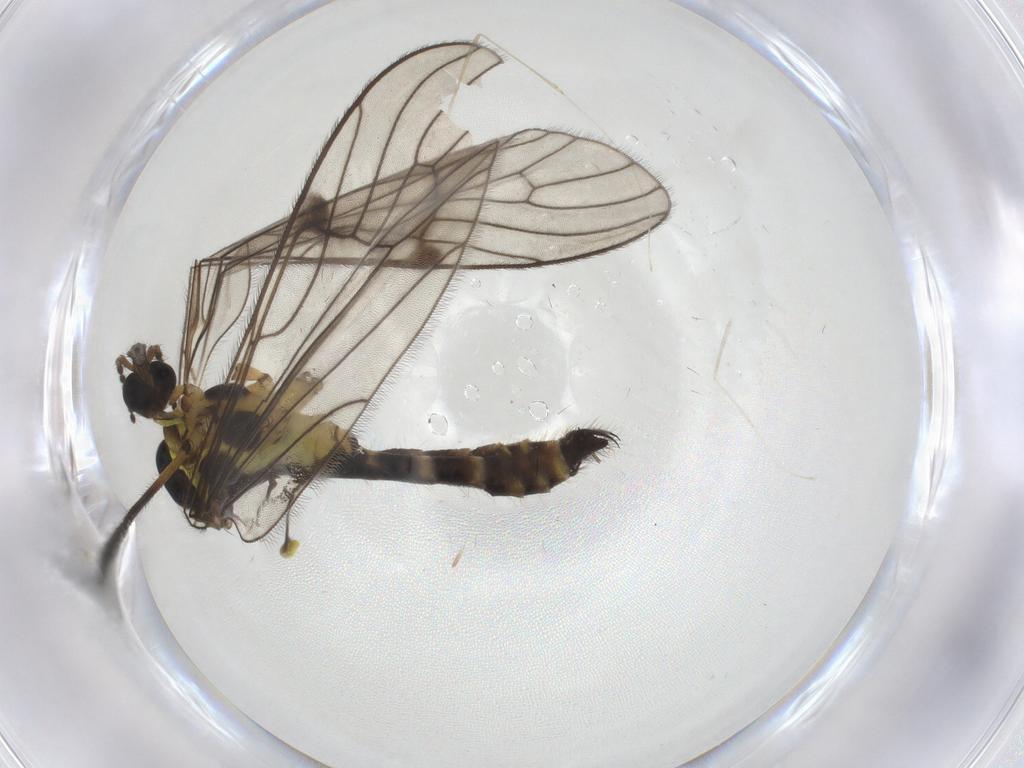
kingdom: Animalia
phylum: Arthropoda
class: Insecta
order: Diptera
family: Limoniidae
